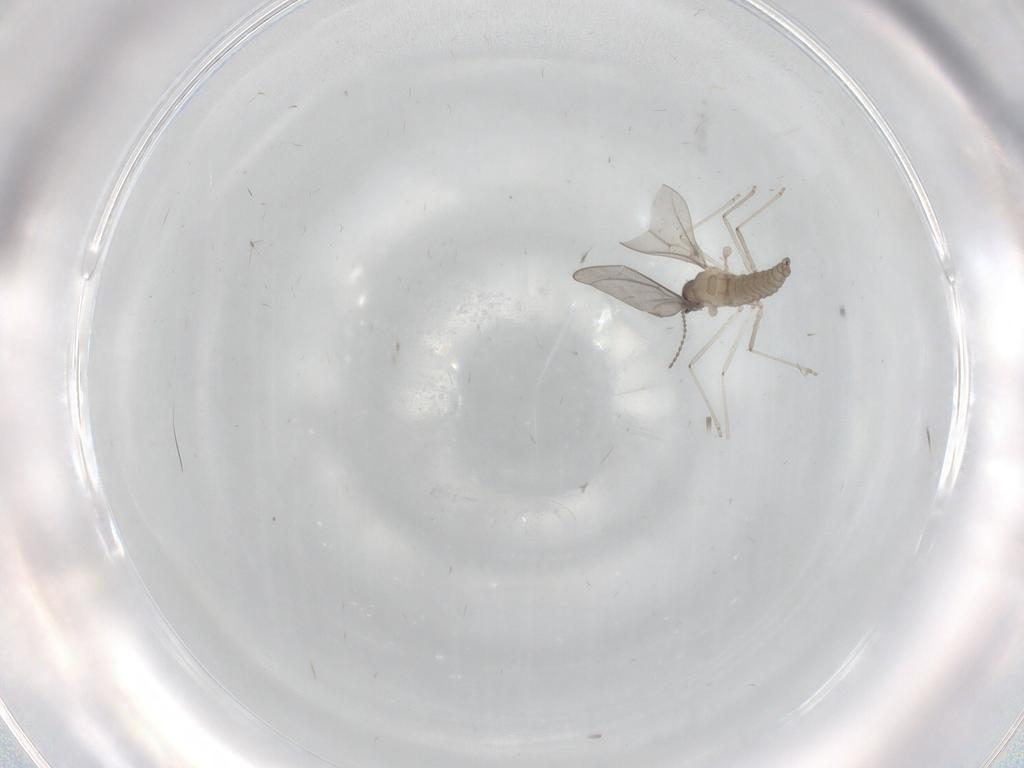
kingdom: Animalia
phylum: Arthropoda
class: Insecta
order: Diptera
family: Cecidomyiidae
